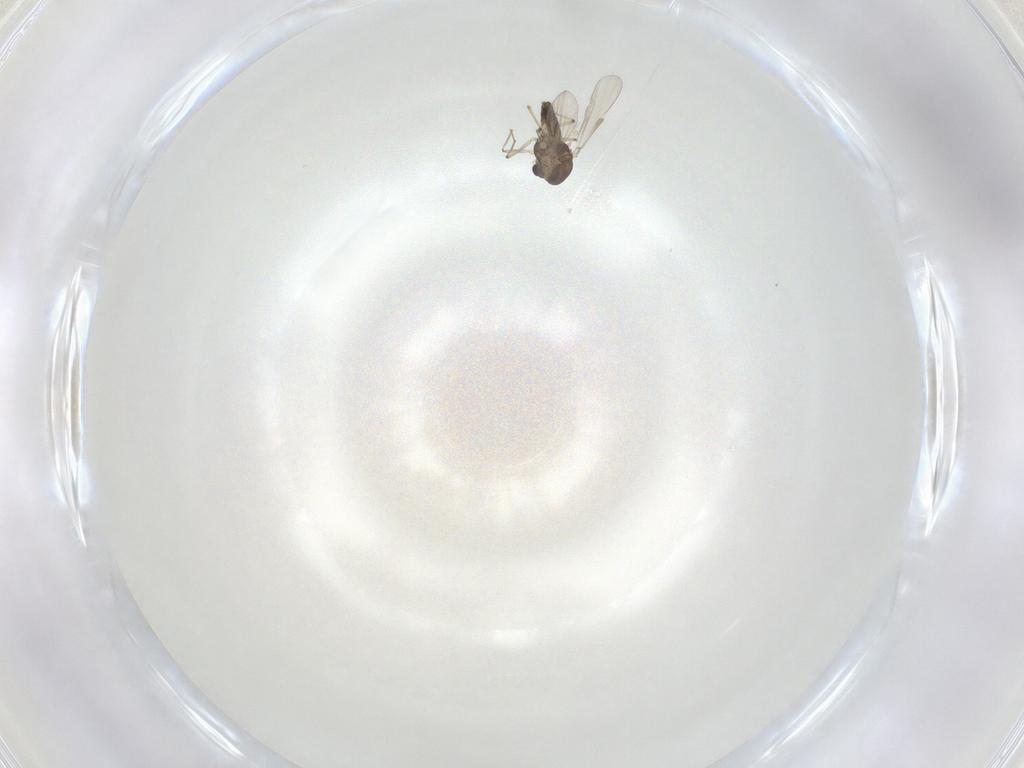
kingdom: Animalia
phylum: Arthropoda
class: Insecta
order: Diptera
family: Chironomidae
